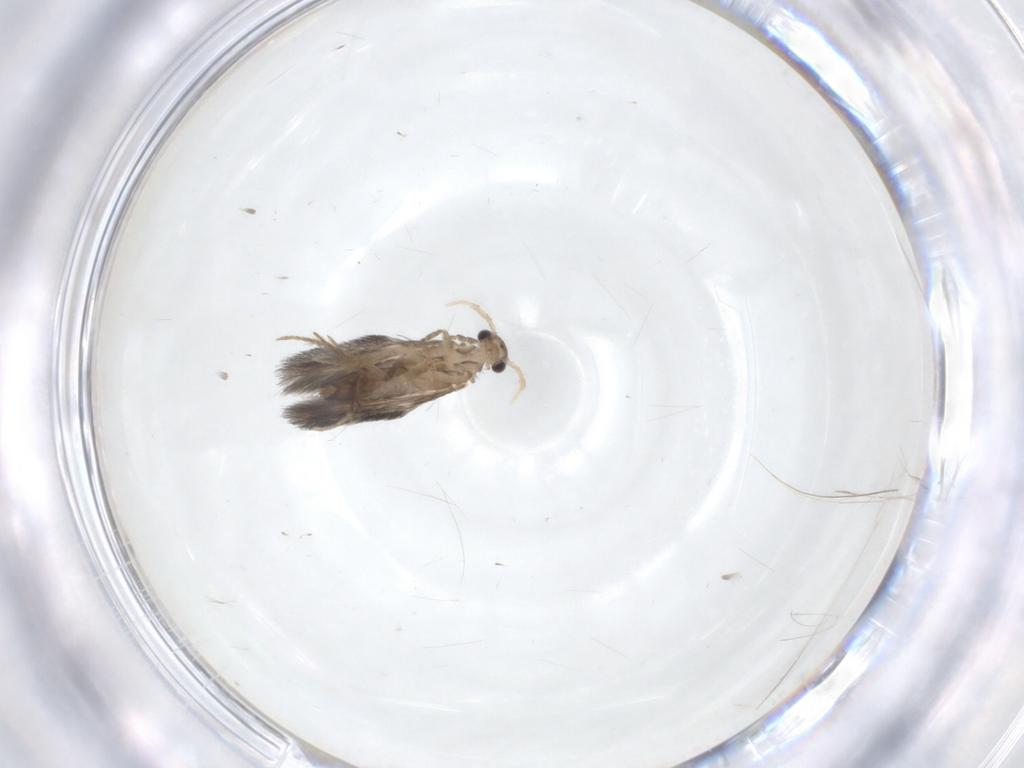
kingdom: Animalia
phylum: Arthropoda
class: Insecta
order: Trichoptera
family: Hydroptilidae
